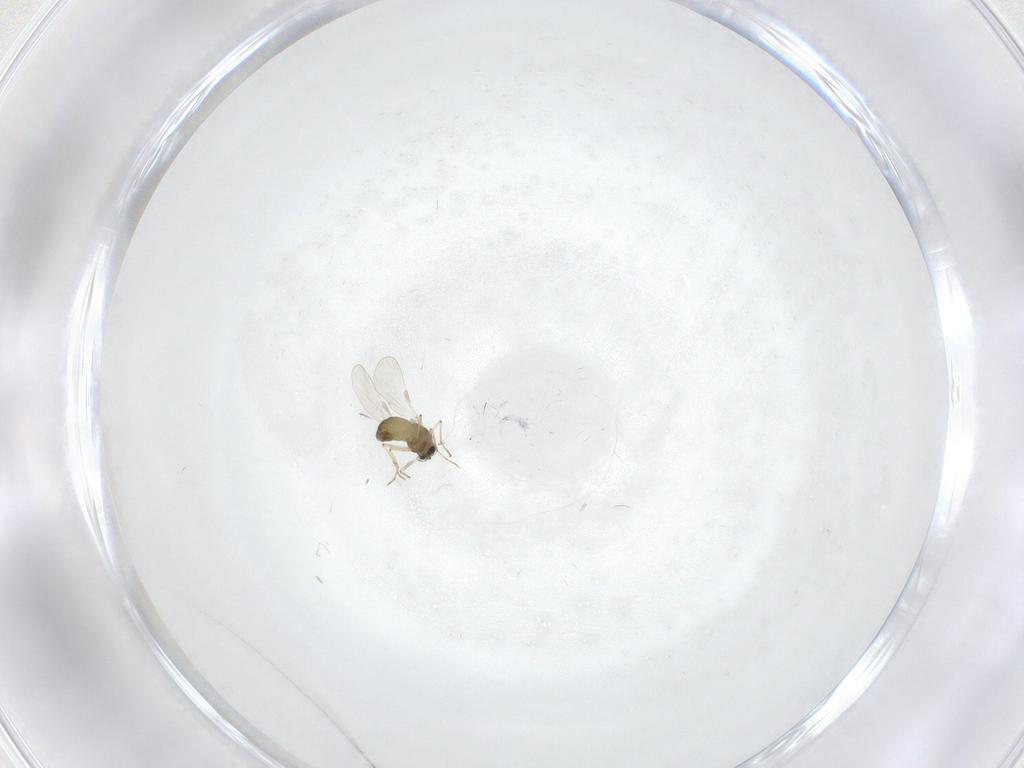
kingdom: Animalia
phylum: Arthropoda
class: Insecta
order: Diptera
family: Chironomidae
